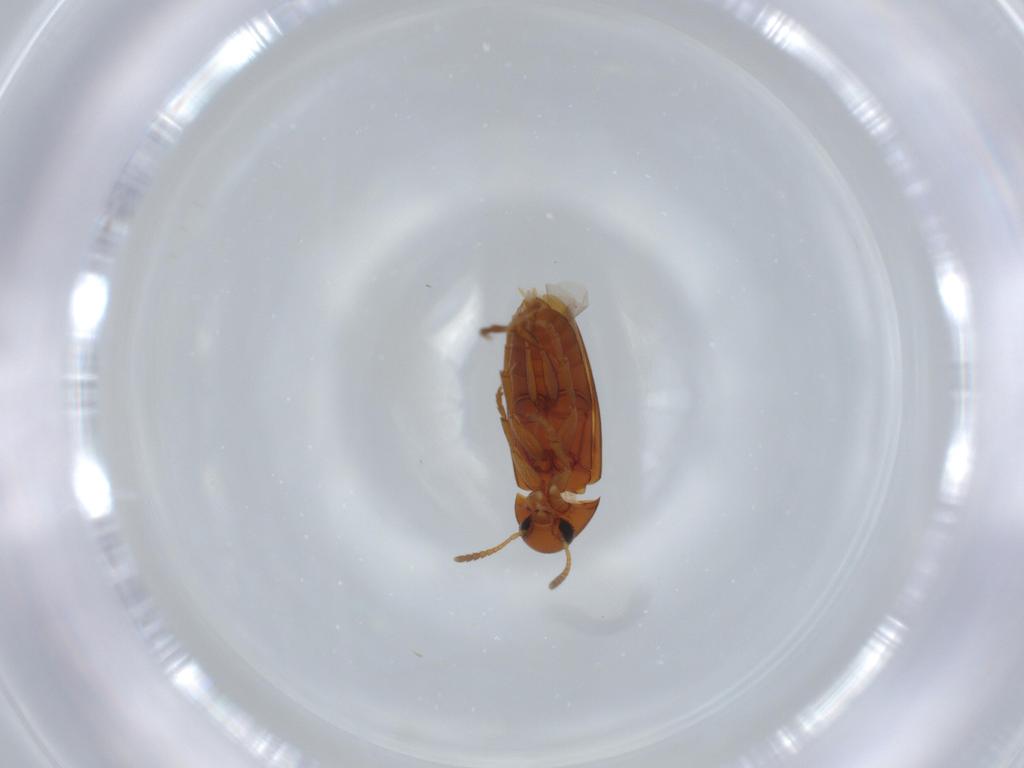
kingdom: Animalia
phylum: Arthropoda
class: Insecta
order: Coleoptera
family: Scraptiidae
